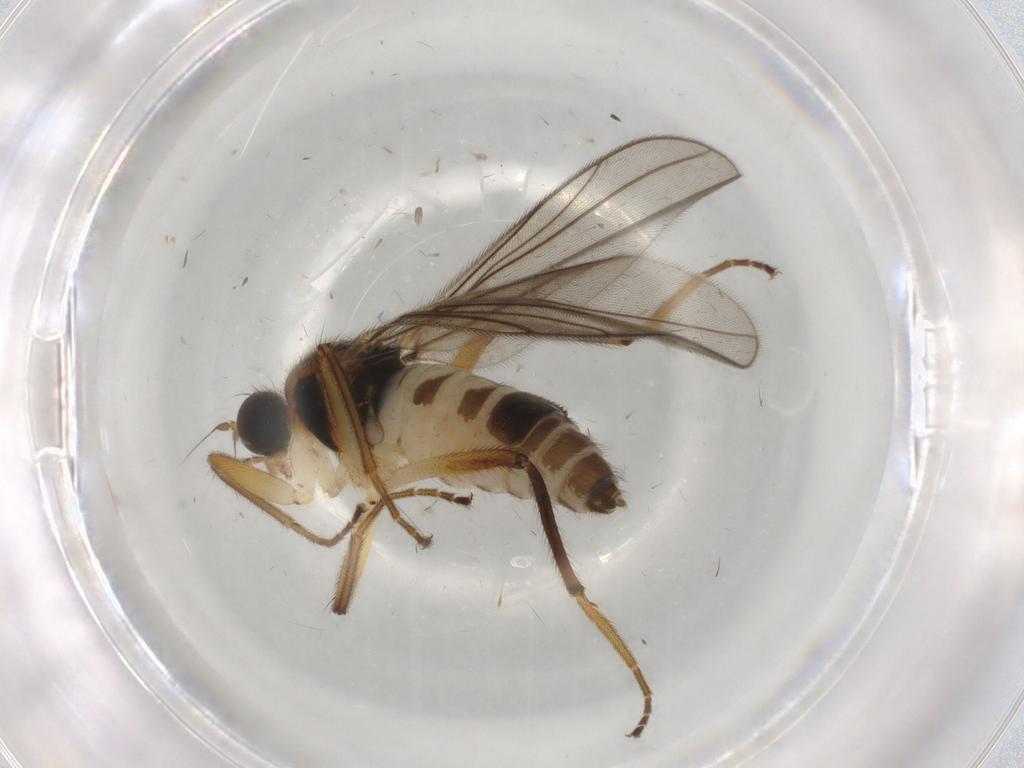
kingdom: Animalia
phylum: Arthropoda
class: Insecta
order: Diptera
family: Hybotidae
